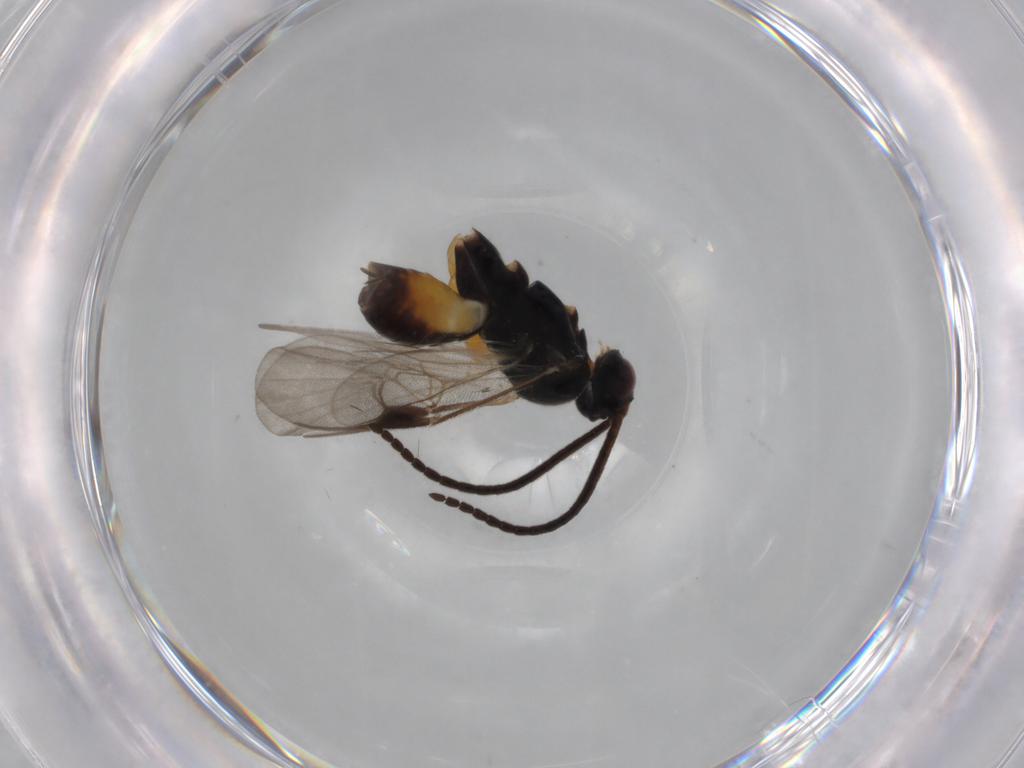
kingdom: Animalia
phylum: Arthropoda
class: Insecta
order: Hymenoptera
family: Braconidae
